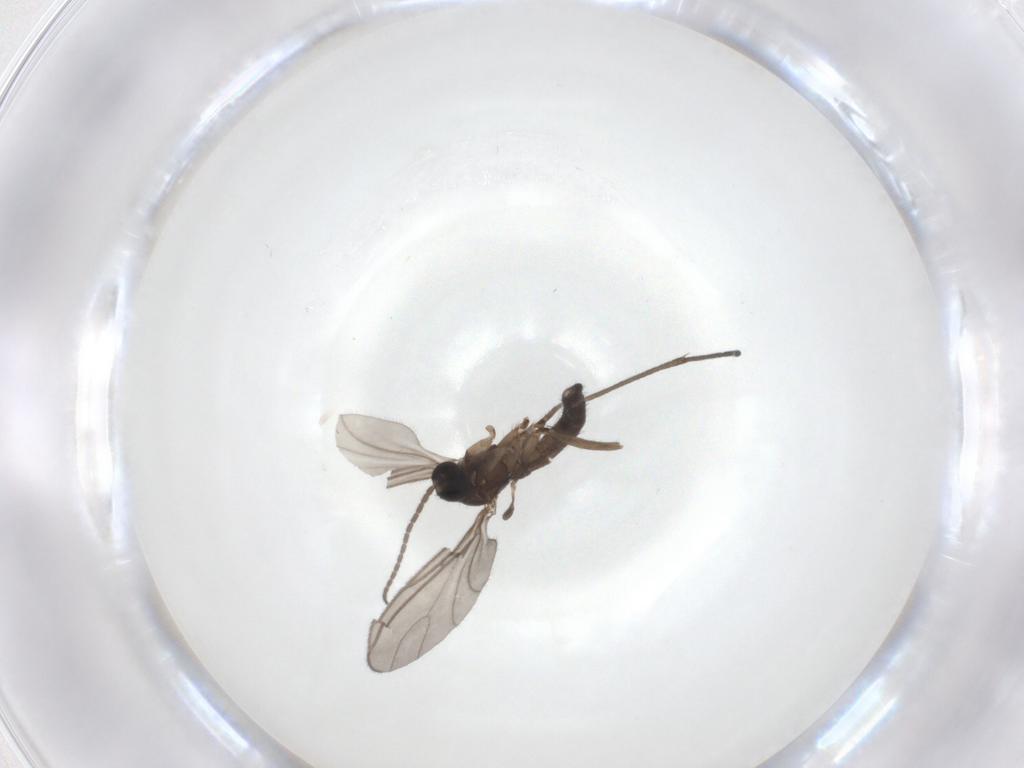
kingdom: Animalia
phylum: Arthropoda
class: Insecta
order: Diptera
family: Sciaridae
